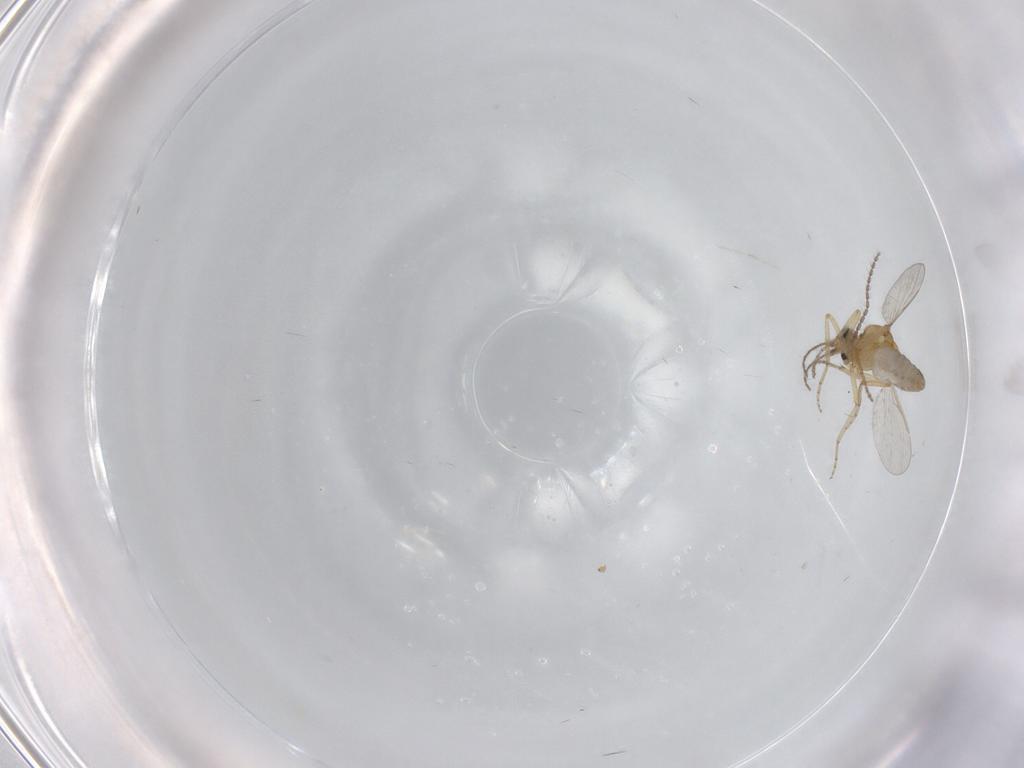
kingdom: Animalia
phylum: Arthropoda
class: Insecta
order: Diptera
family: Ceratopogonidae
